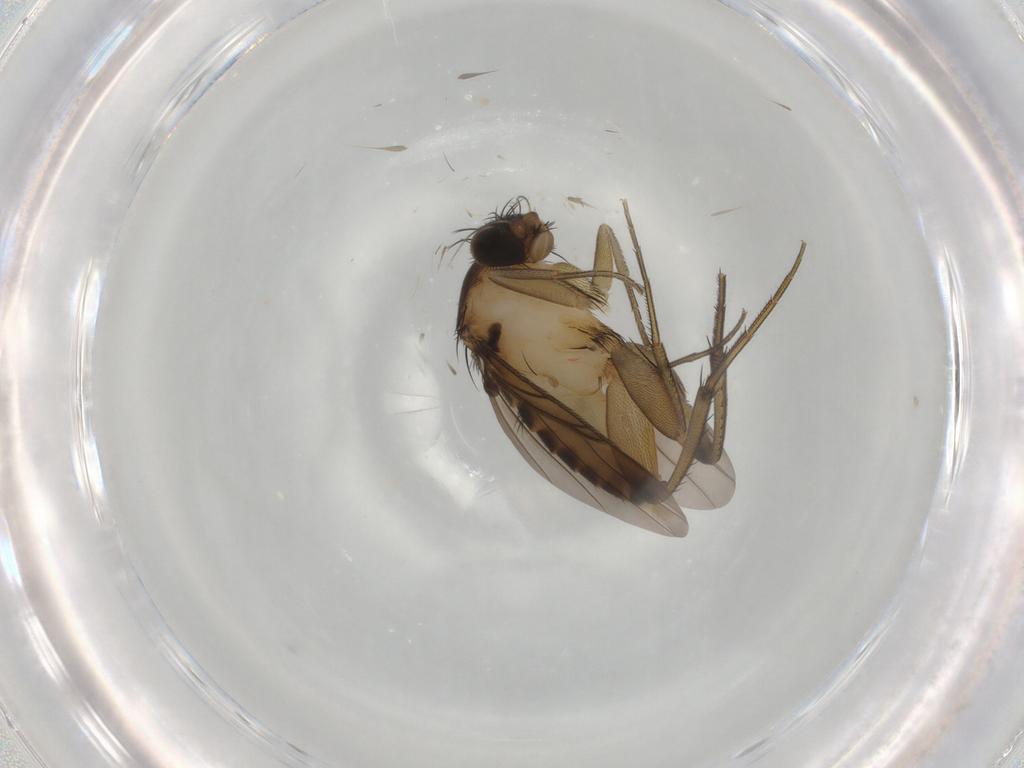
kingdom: Animalia
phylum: Arthropoda
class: Insecta
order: Diptera
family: Phoridae
